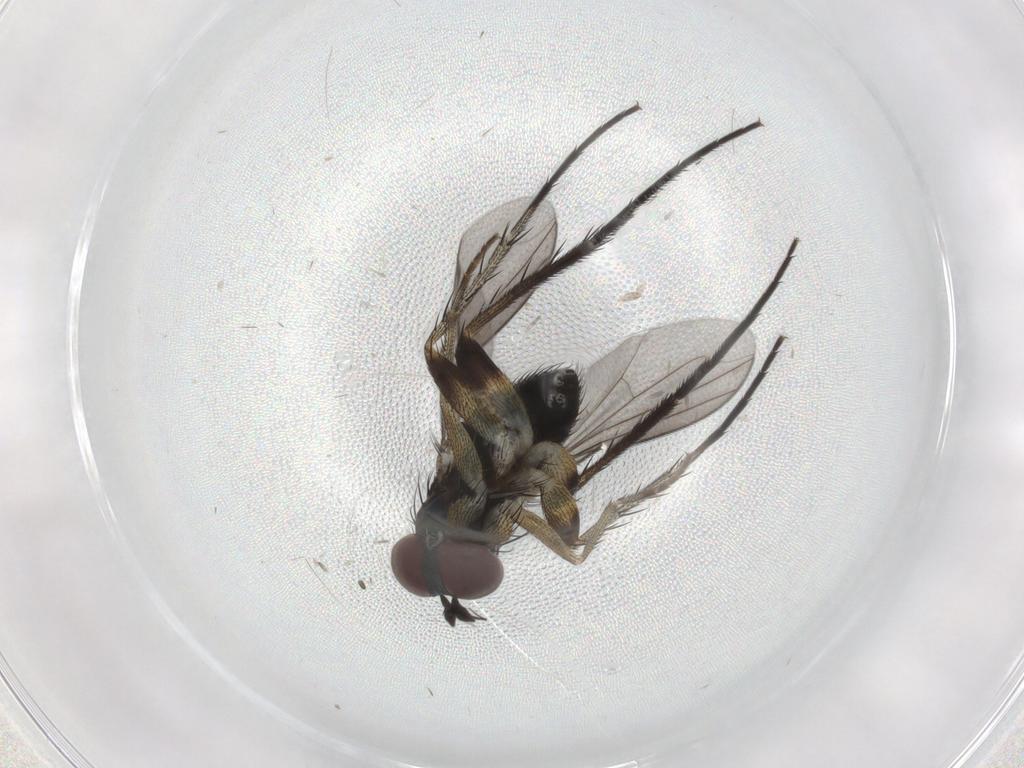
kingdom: Animalia
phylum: Arthropoda
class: Insecta
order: Diptera
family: Dolichopodidae
